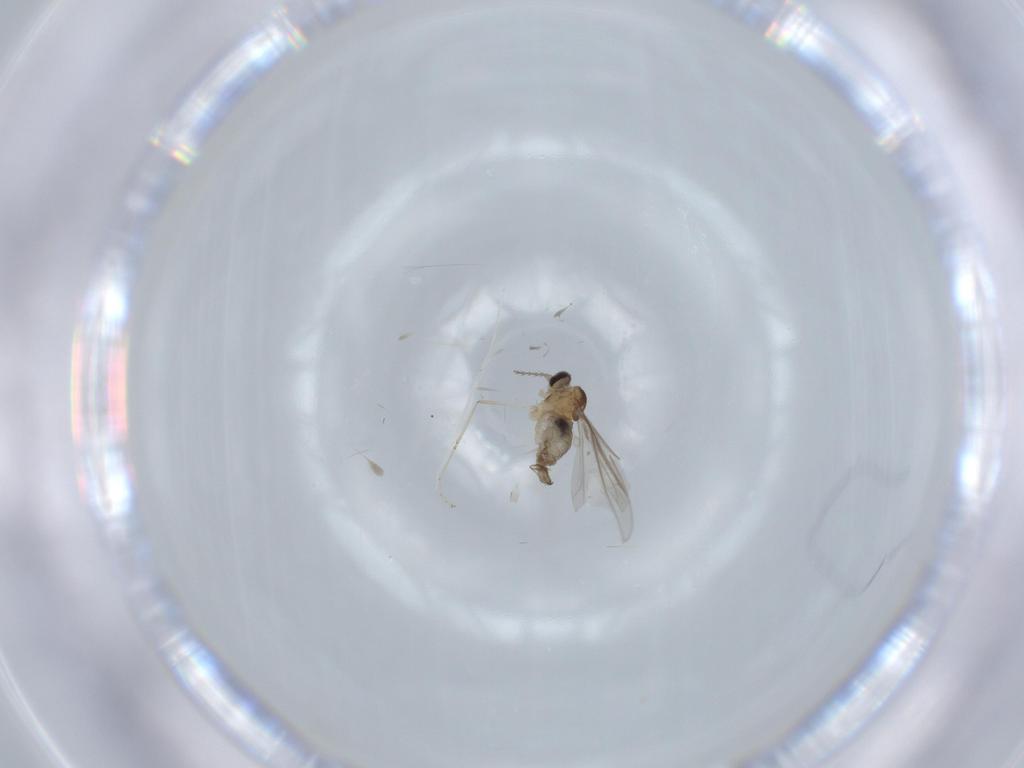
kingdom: Animalia
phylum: Arthropoda
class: Insecta
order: Diptera
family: Cecidomyiidae
